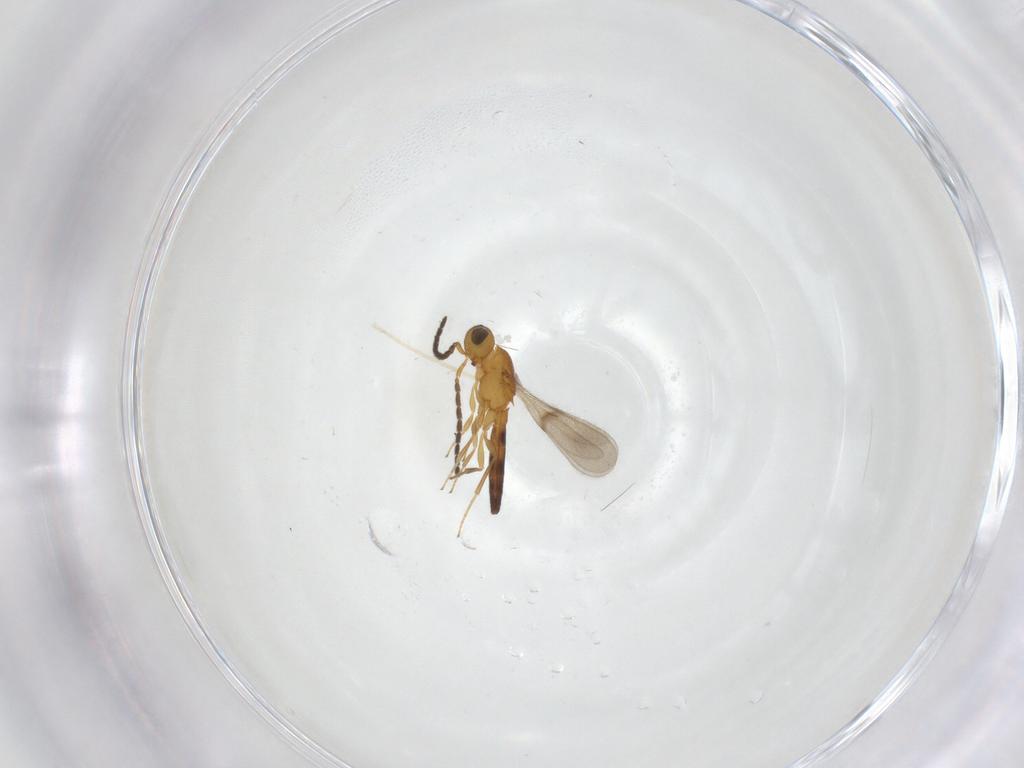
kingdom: Animalia
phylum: Arthropoda
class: Insecta
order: Hymenoptera
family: Scelionidae
